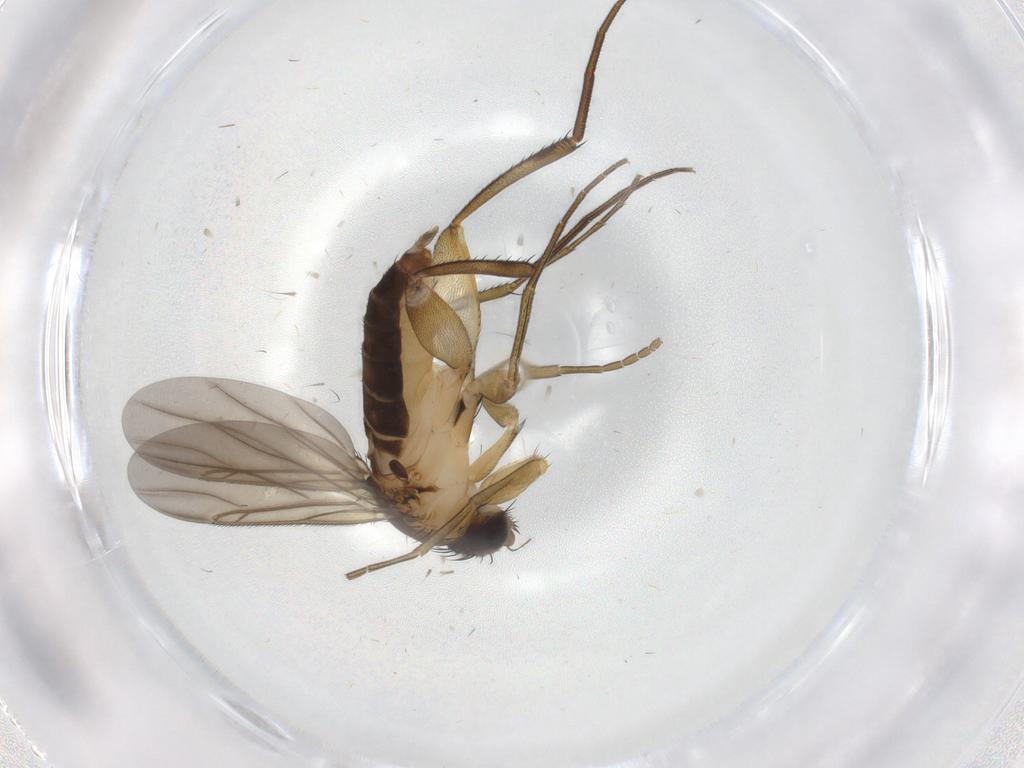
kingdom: Animalia
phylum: Arthropoda
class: Insecta
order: Diptera
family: Phoridae
